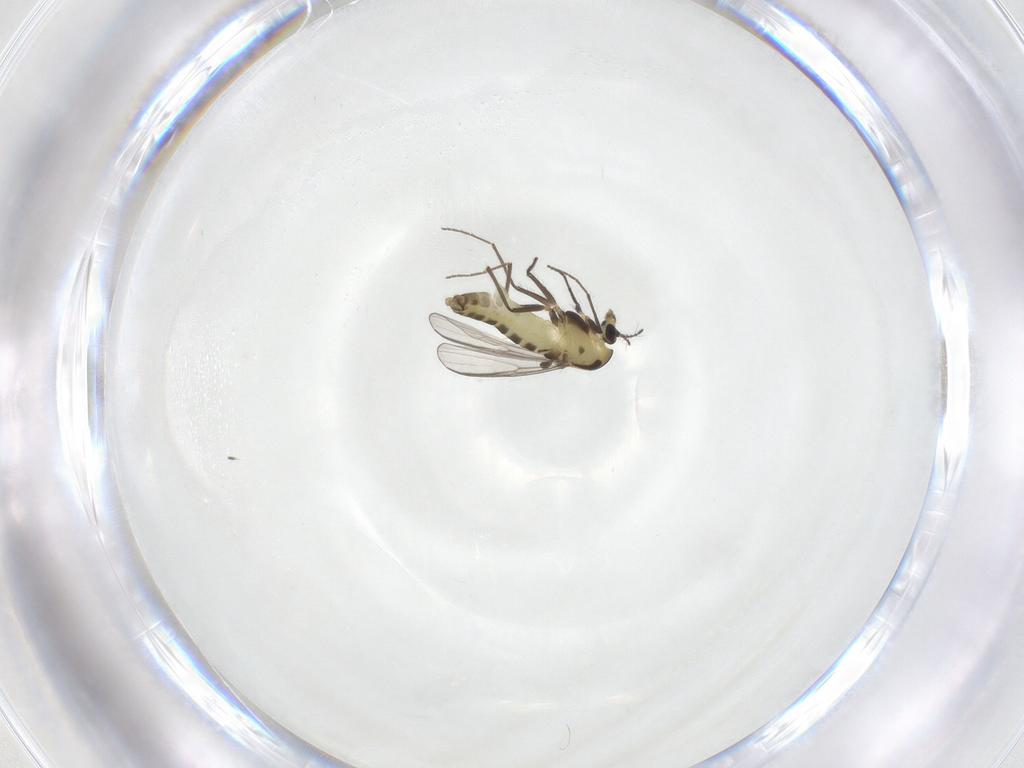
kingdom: Animalia
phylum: Arthropoda
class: Insecta
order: Diptera
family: Chironomidae
